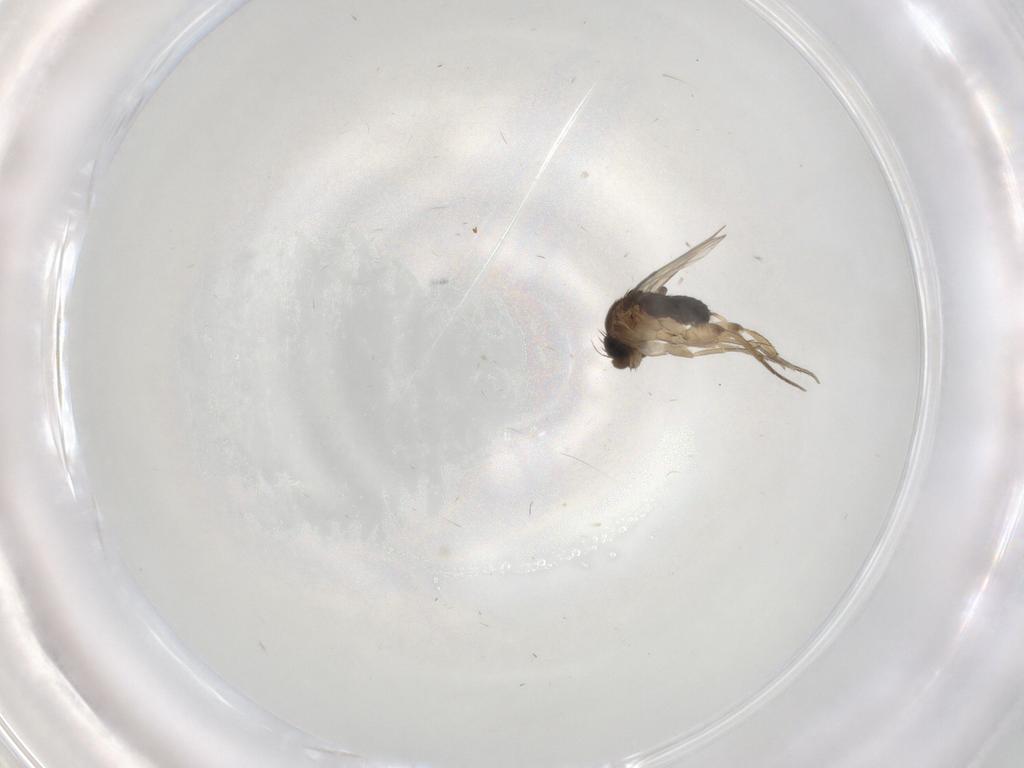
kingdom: Animalia
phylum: Arthropoda
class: Insecta
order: Diptera
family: Phoridae
